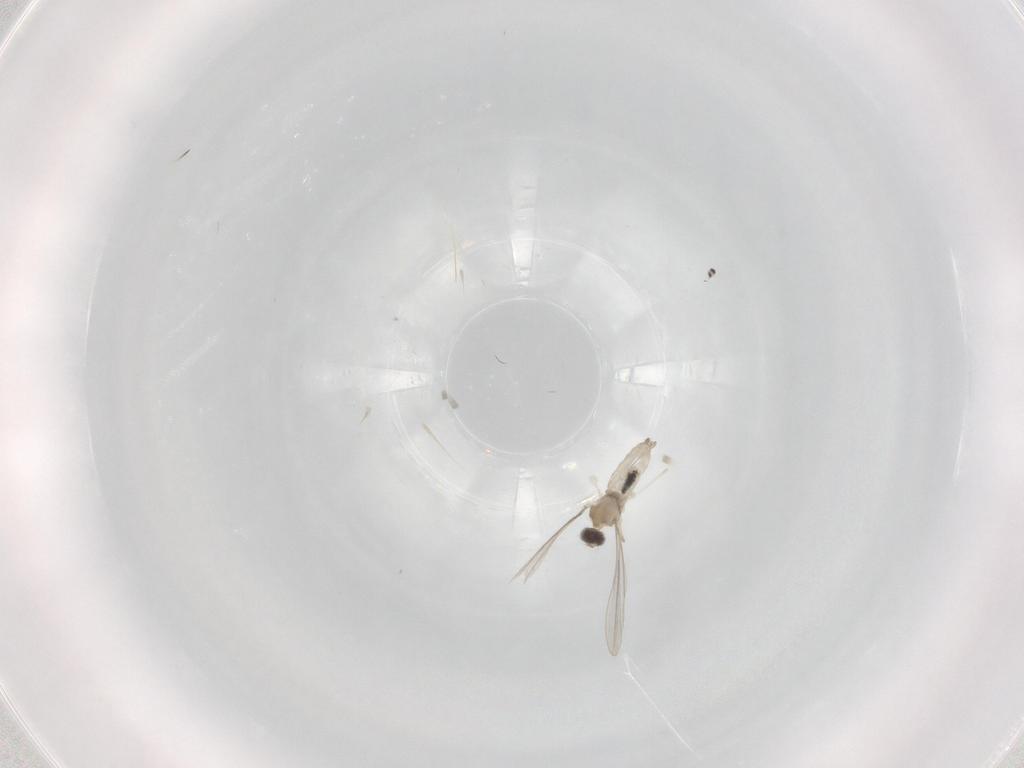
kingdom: Animalia
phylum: Arthropoda
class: Insecta
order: Diptera
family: Cecidomyiidae
